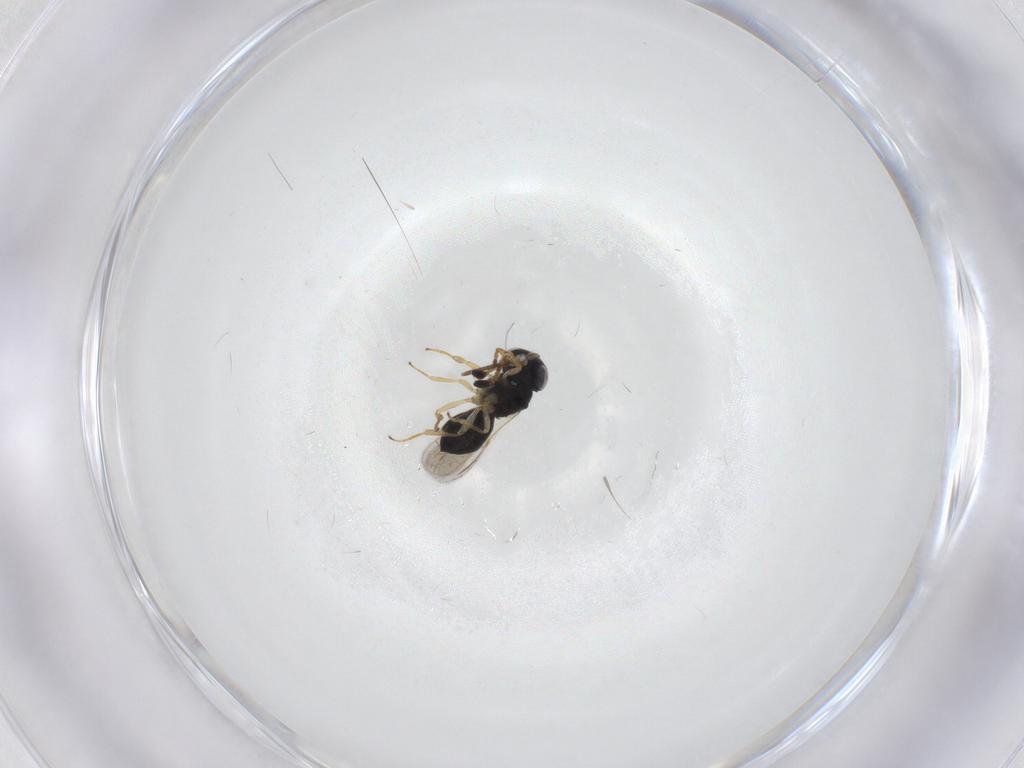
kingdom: Animalia
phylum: Arthropoda
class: Insecta
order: Hymenoptera
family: Scelionidae
